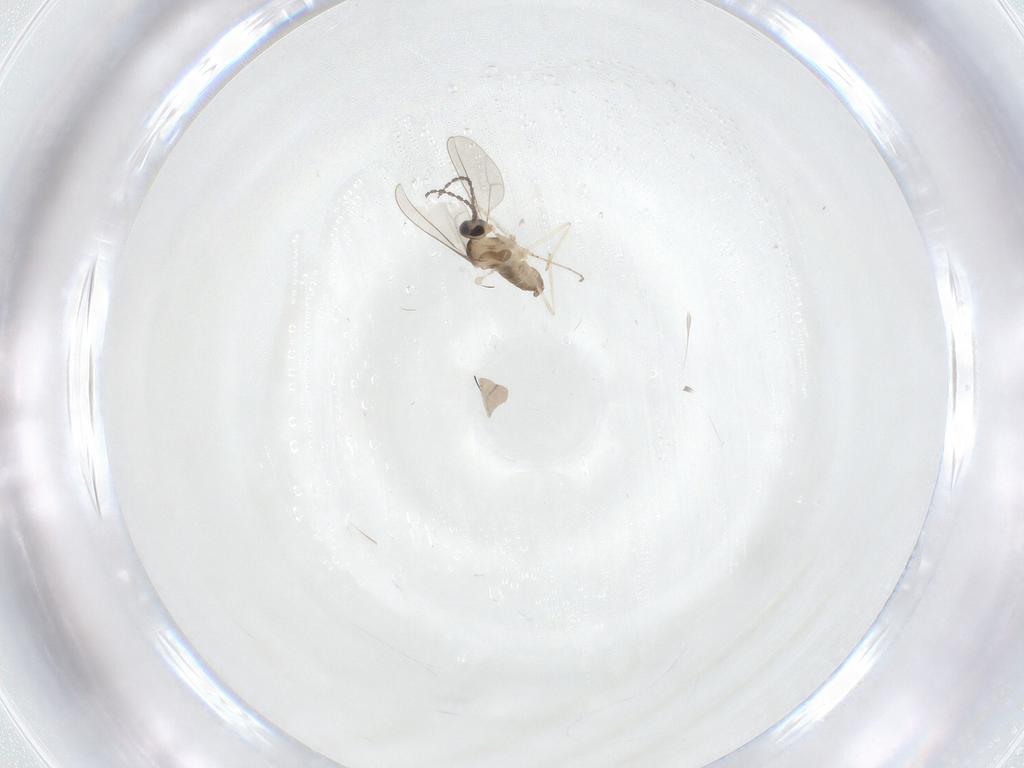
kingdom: Animalia
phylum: Arthropoda
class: Insecta
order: Diptera
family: Cecidomyiidae
